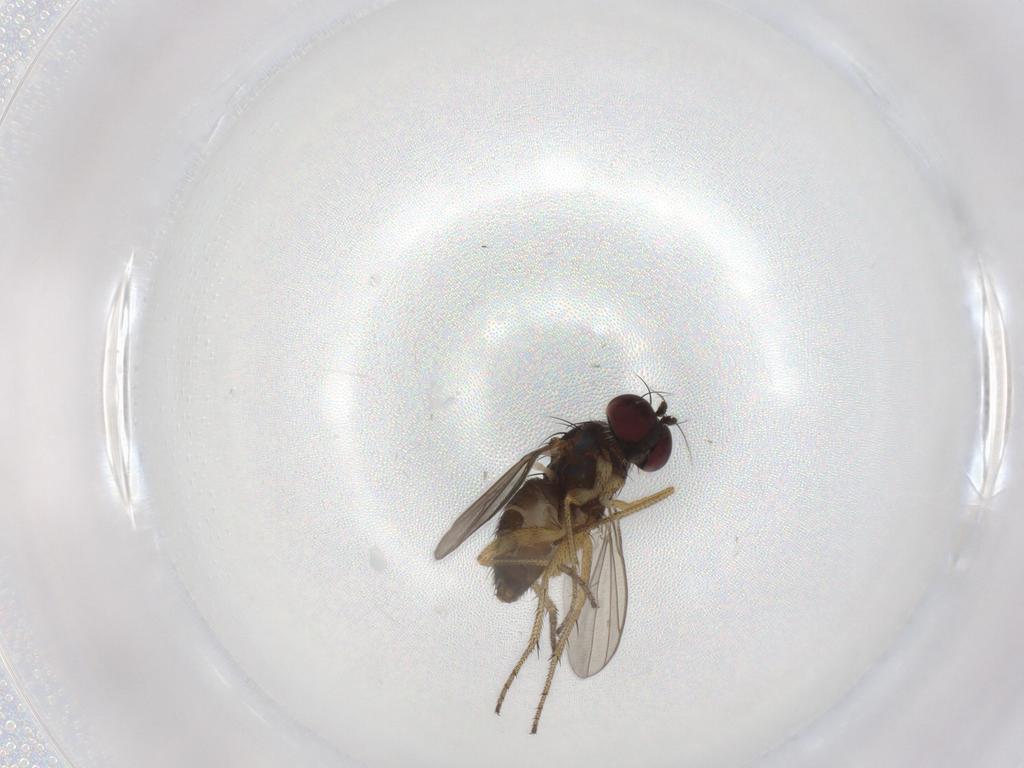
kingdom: Animalia
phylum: Arthropoda
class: Insecta
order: Diptera
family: Dolichopodidae
